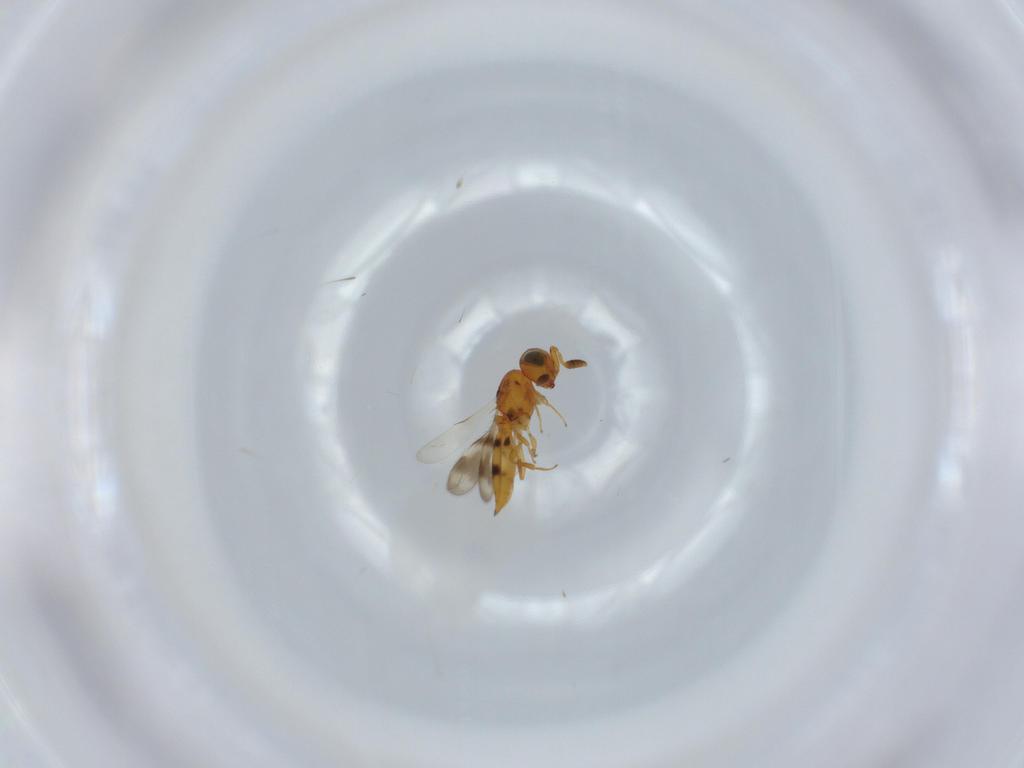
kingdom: Animalia
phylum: Arthropoda
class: Insecta
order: Hymenoptera
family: Scelionidae
